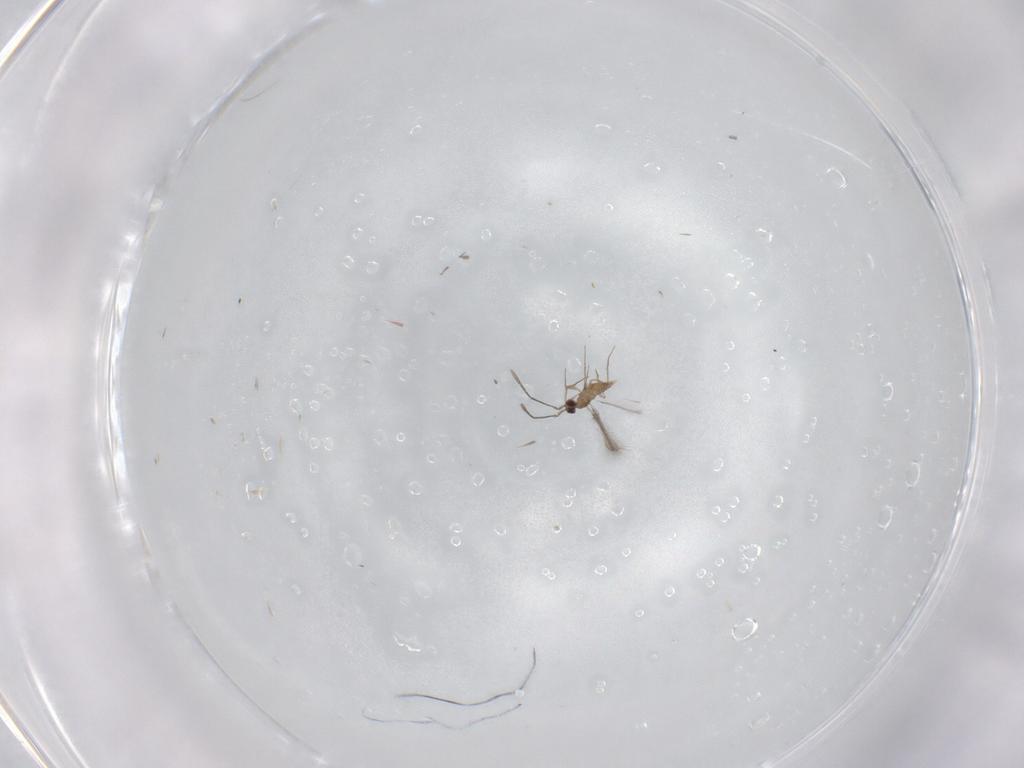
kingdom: Animalia
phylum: Arthropoda
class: Insecta
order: Hymenoptera
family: Mymaridae
